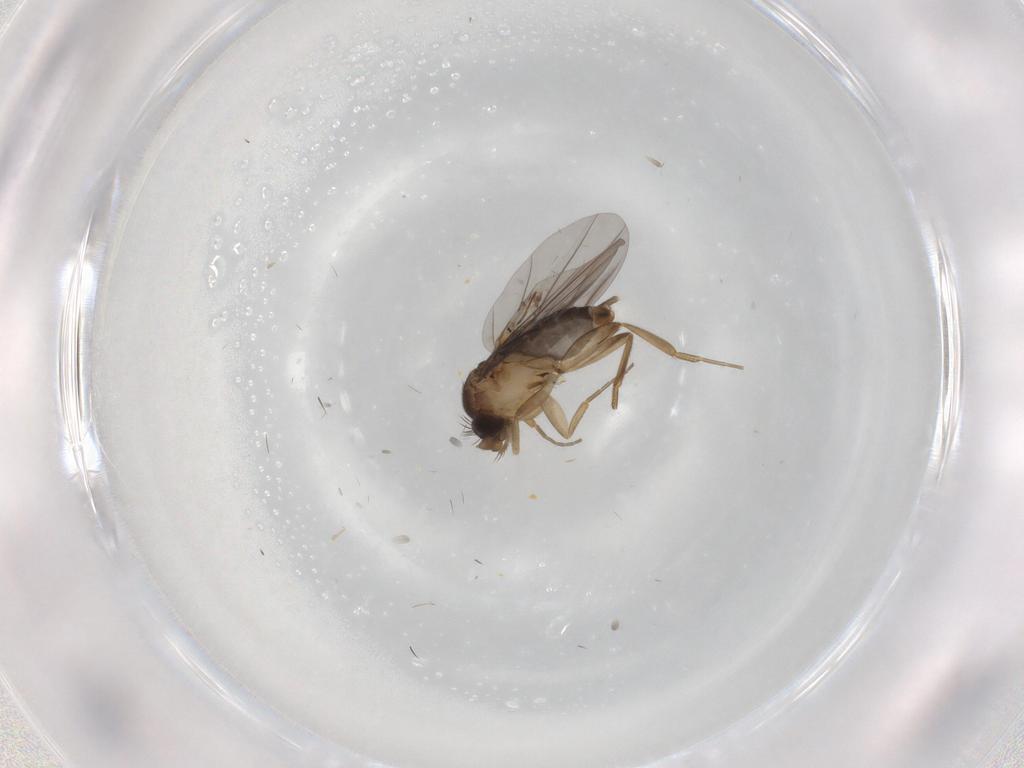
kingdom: Animalia
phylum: Arthropoda
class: Insecta
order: Diptera
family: Phoridae
